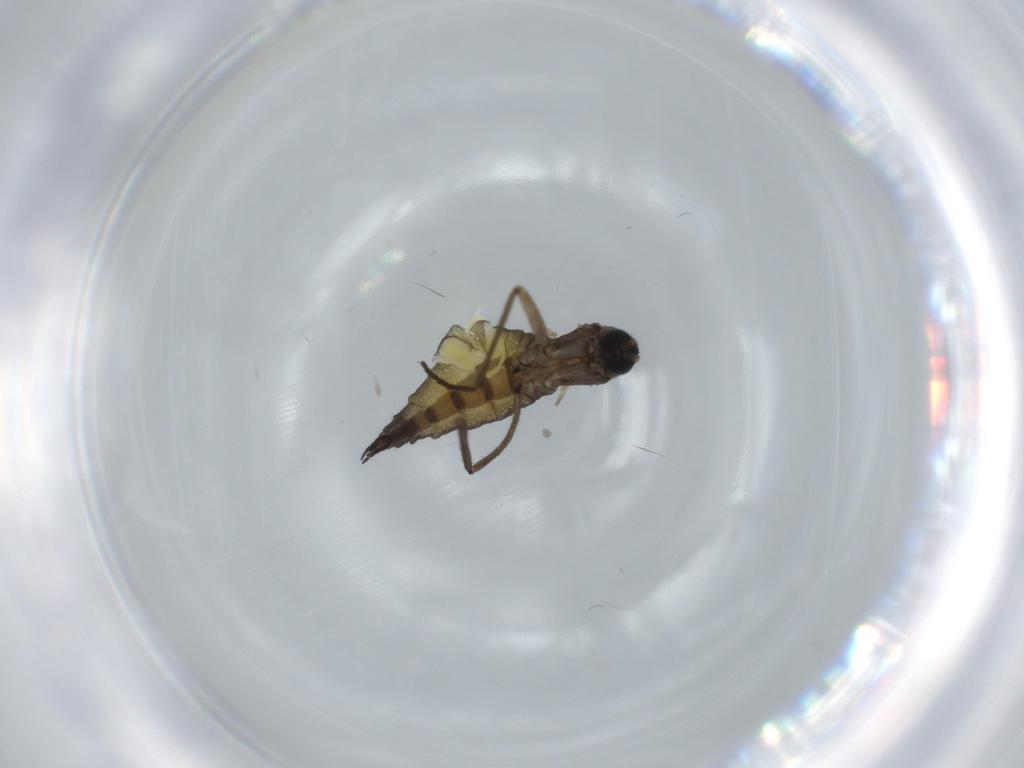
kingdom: Animalia
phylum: Arthropoda
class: Insecta
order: Diptera
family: Sciaridae
